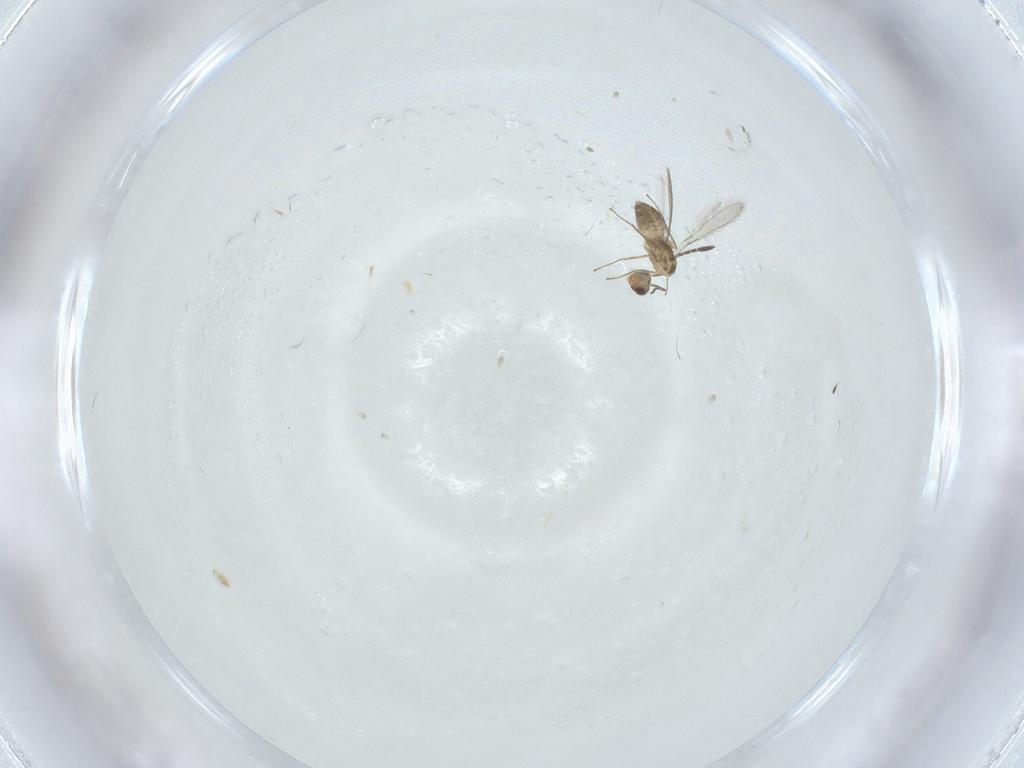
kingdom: Animalia
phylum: Arthropoda
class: Insecta
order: Hymenoptera
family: Mymaridae
